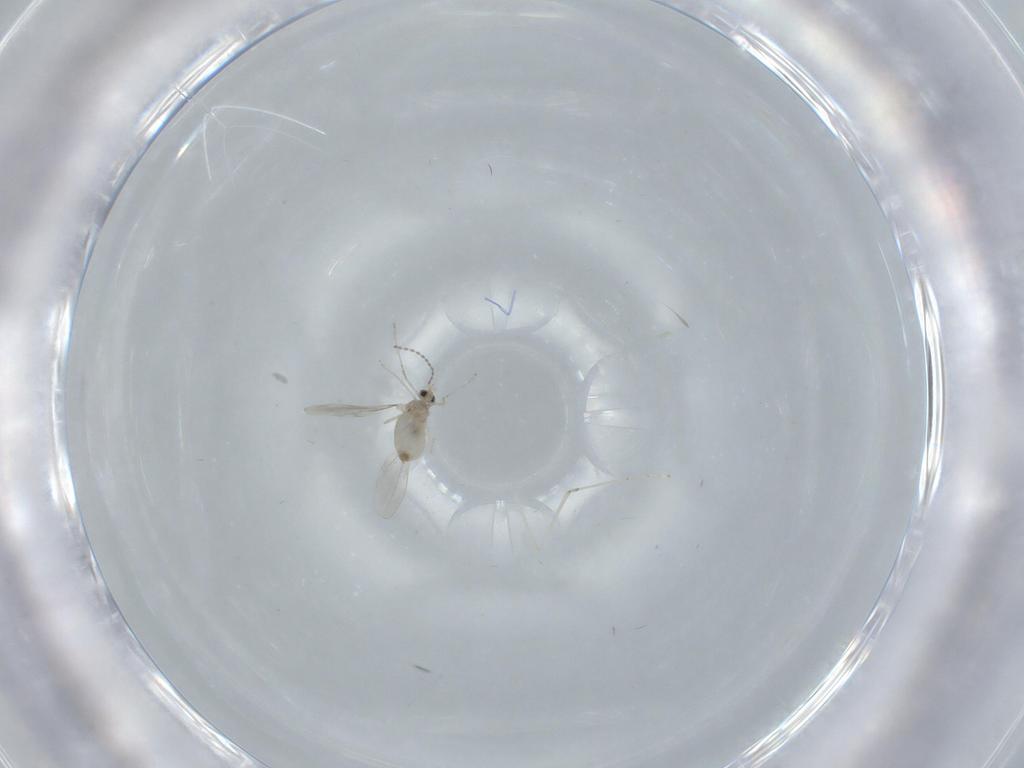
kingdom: Animalia
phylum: Arthropoda
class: Insecta
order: Diptera
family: Cecidomyiidae
